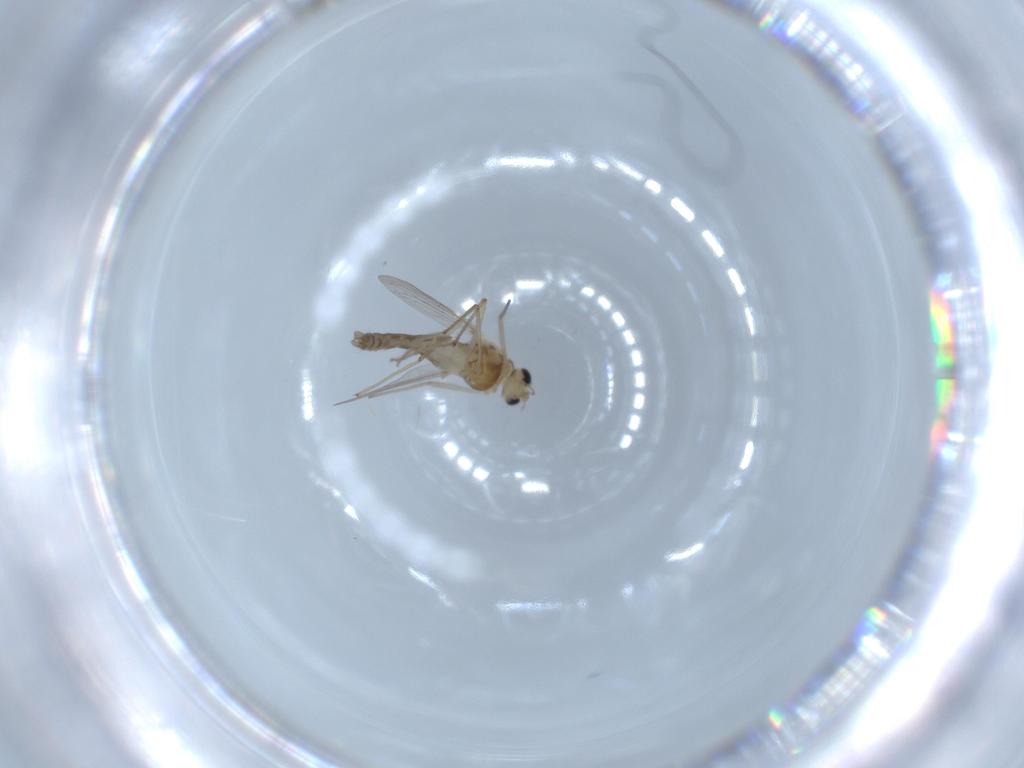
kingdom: Animalia
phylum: Arthropoda
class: Insecta
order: Diptera
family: Chironomidae
